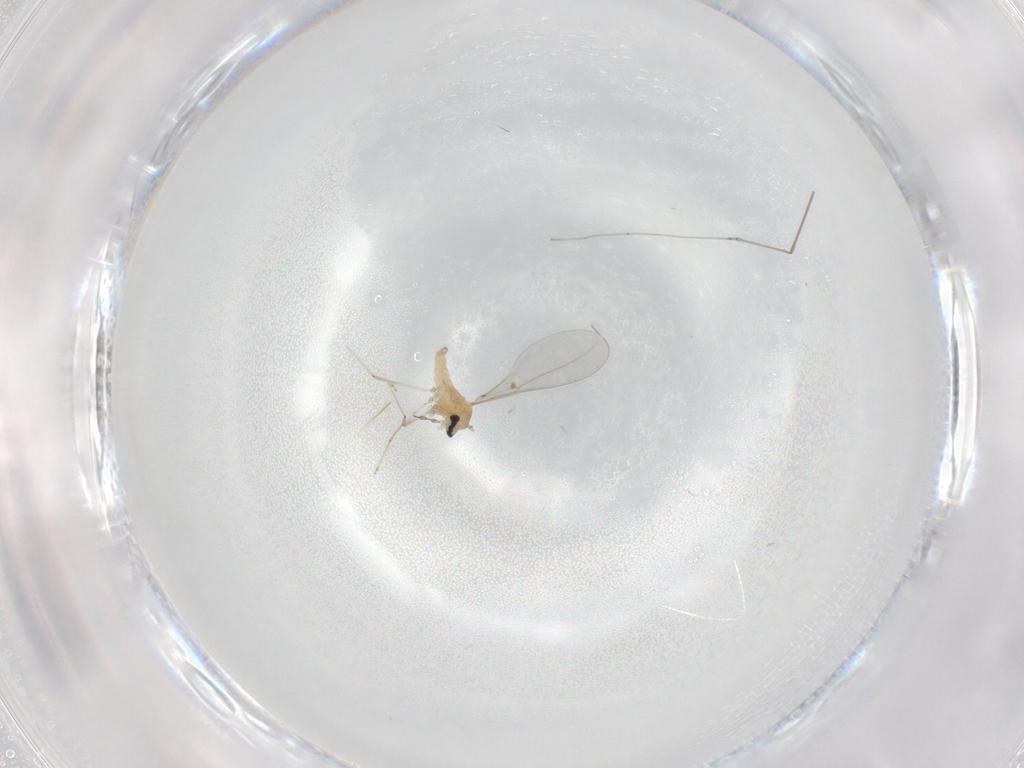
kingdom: Animalia
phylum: Arthropoda
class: Insecta
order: Diptera
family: Cecidomyiidae
